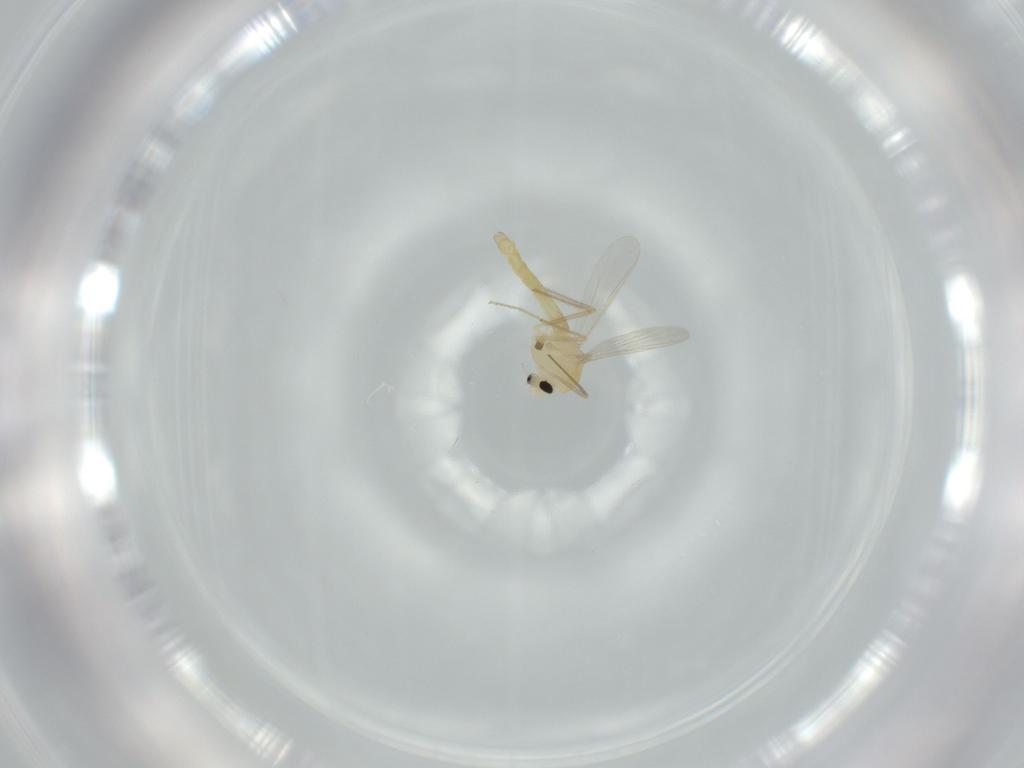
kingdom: Animalia
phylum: Arthropoda
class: Insecta
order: Diptera
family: Chironomidae
